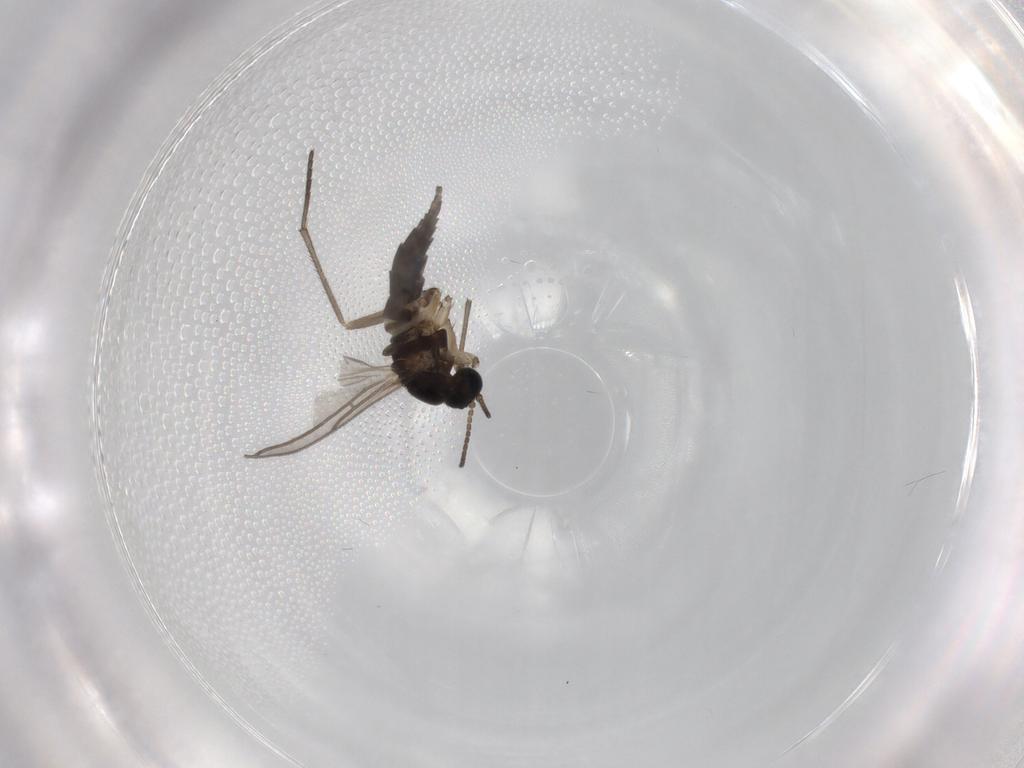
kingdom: Animalia
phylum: Arthropoda
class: Insecta
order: Diptera
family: Sciaridae
